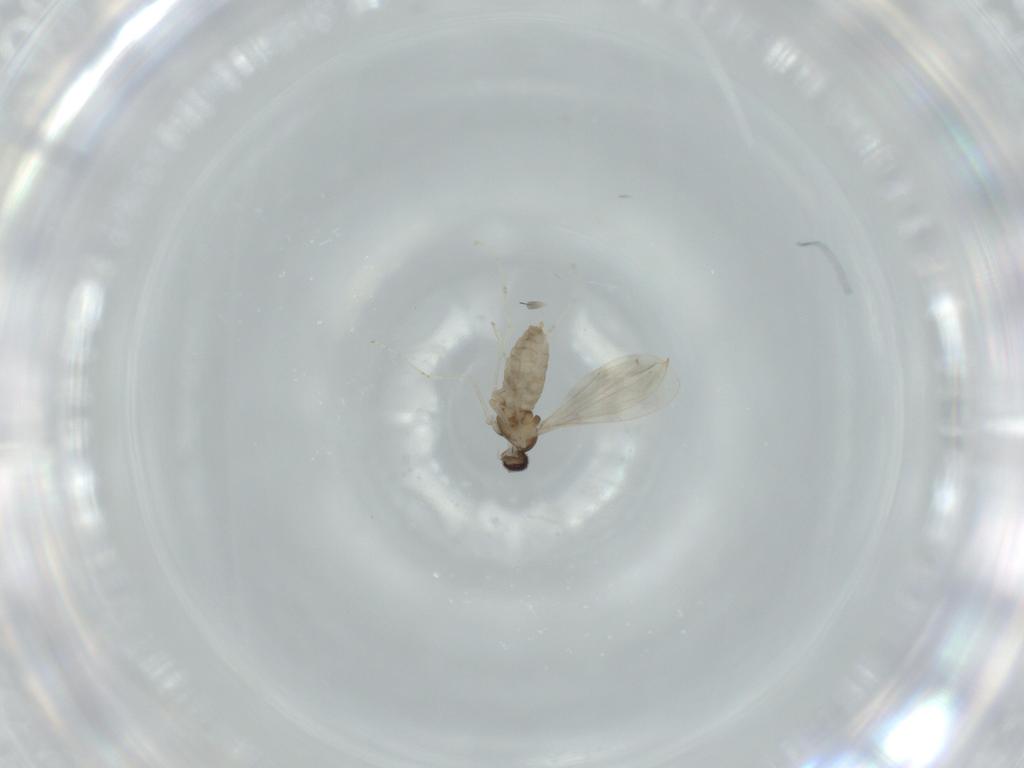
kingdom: Animalia
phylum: Arthropoda
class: Insecta
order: Diptera
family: Cecidomyiidae
